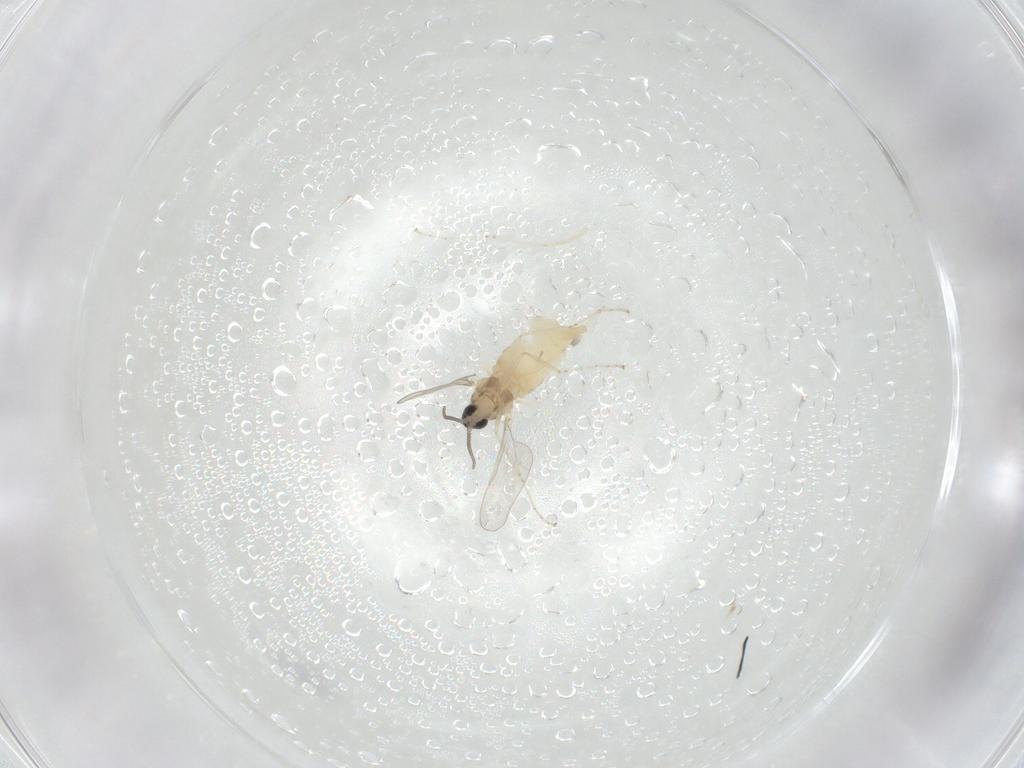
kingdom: Animalia
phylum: Arthropoda
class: Insecta
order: Diptera
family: Cecidomyiidae
